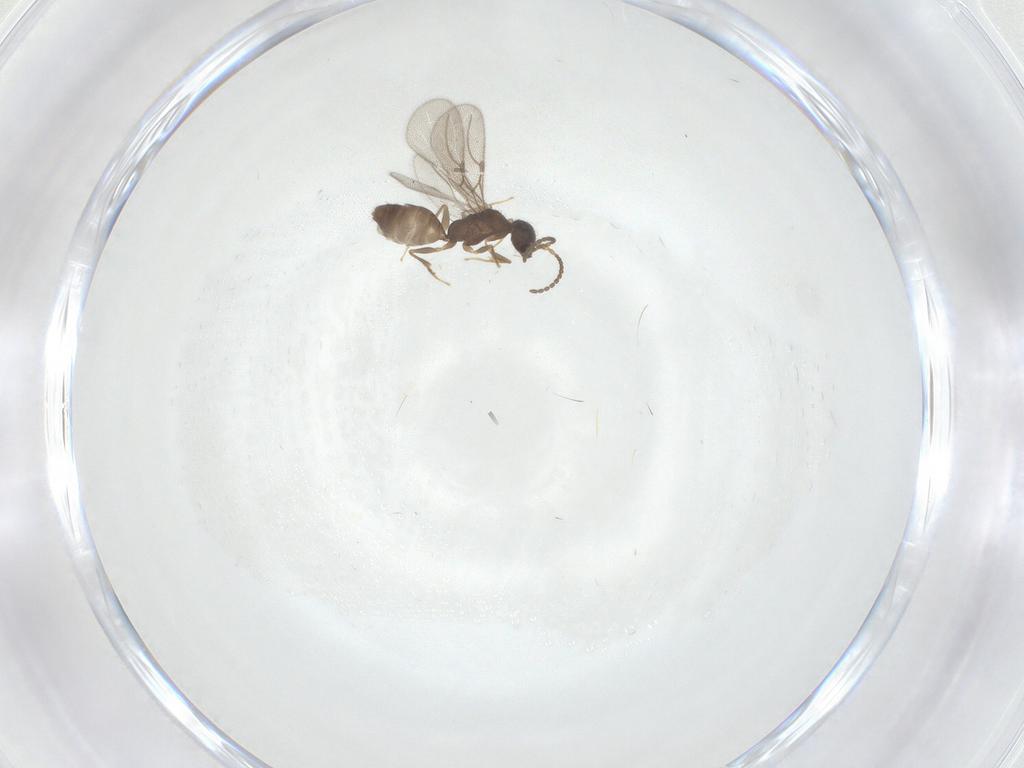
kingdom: Animalia
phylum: Arthropoda
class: Insecta
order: Hymenoptera
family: Bethylidae
